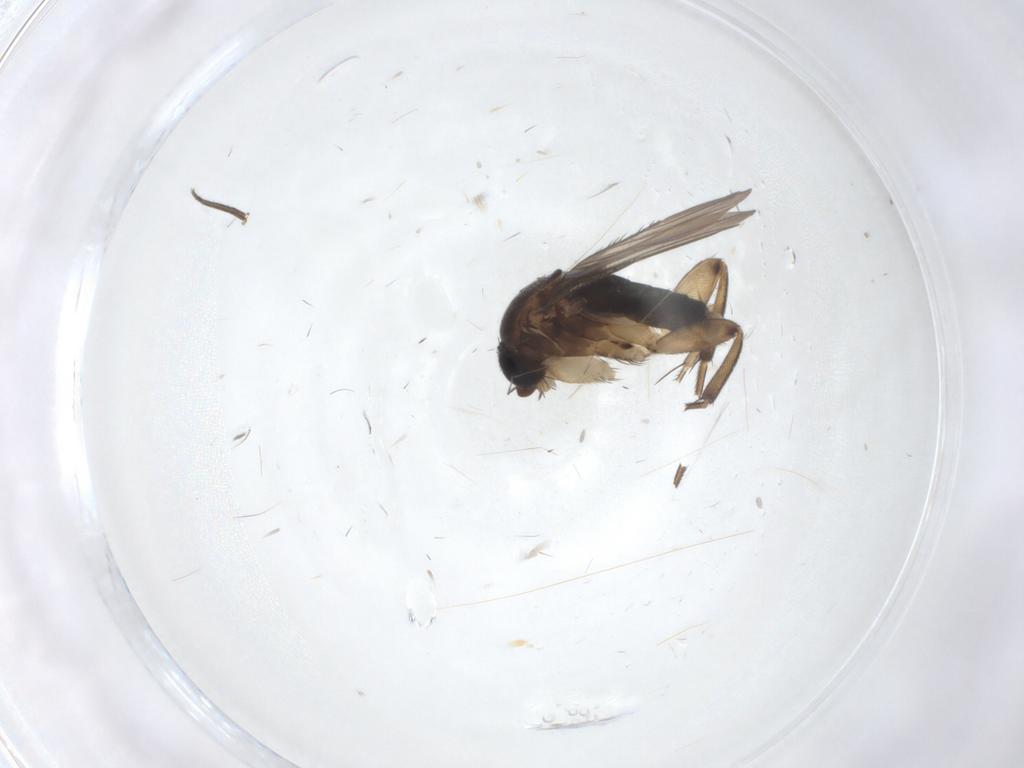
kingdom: Animalia
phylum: Arthropoda
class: Insecta
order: Diptera
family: Phoridae
